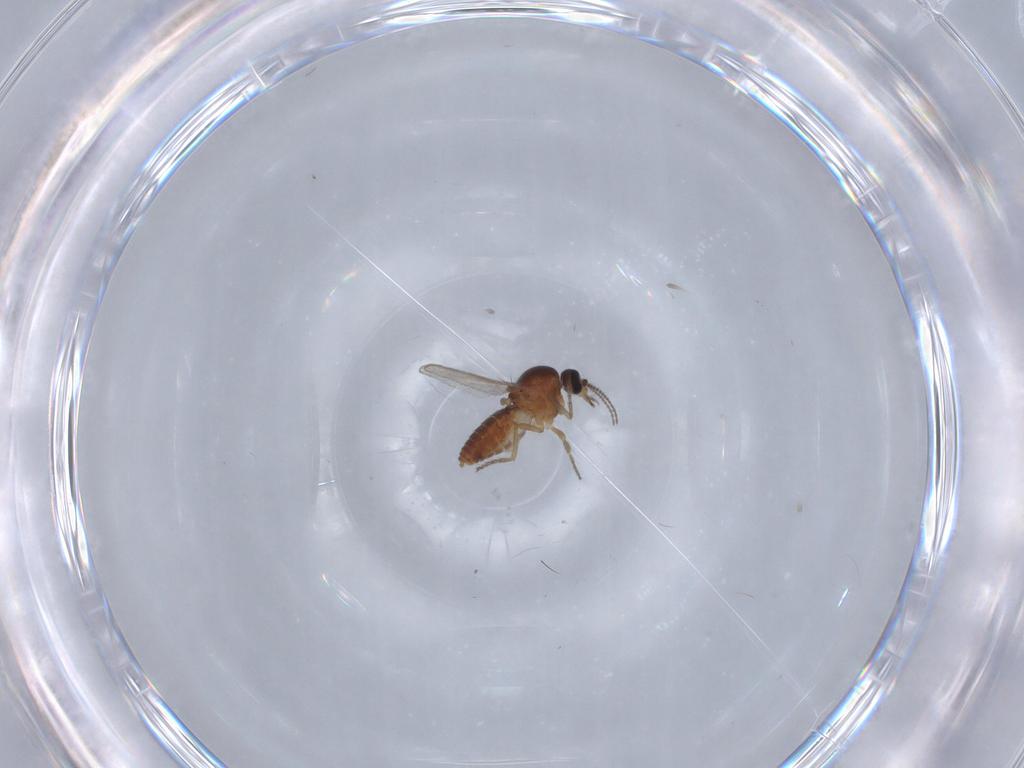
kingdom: Animalia
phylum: Arthropoda
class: Insecta
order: Diptera
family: Ceratopogonidae
